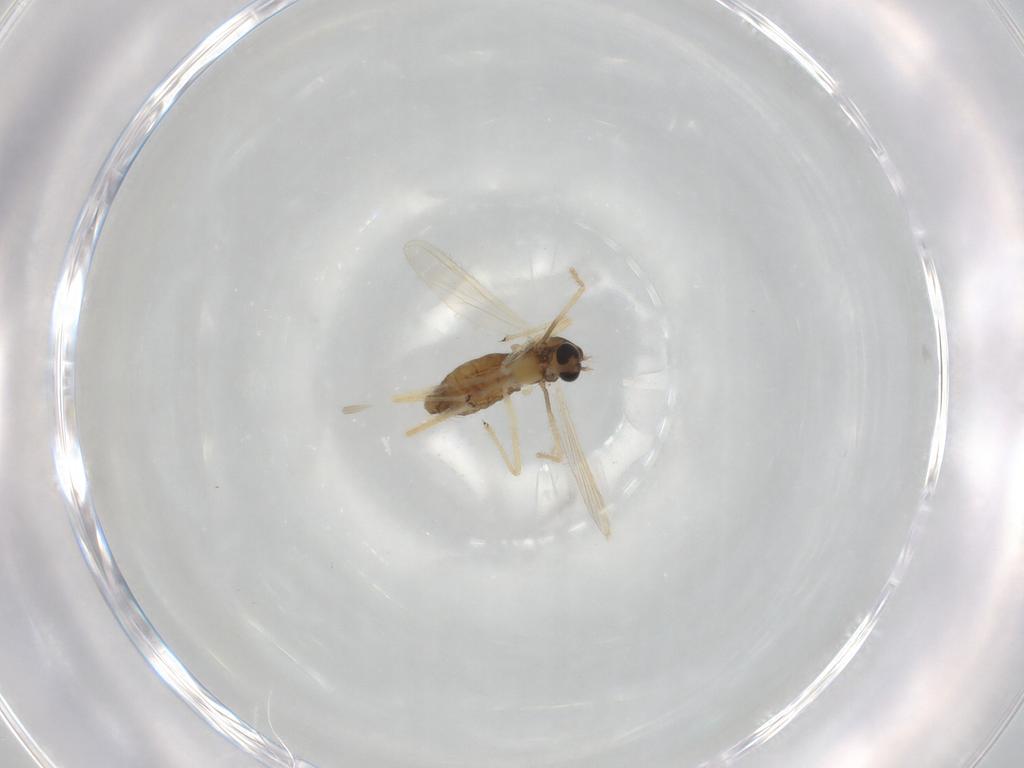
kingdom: Animalia
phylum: Arthropoda
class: Insecta
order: Diptera
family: Chironomidae
